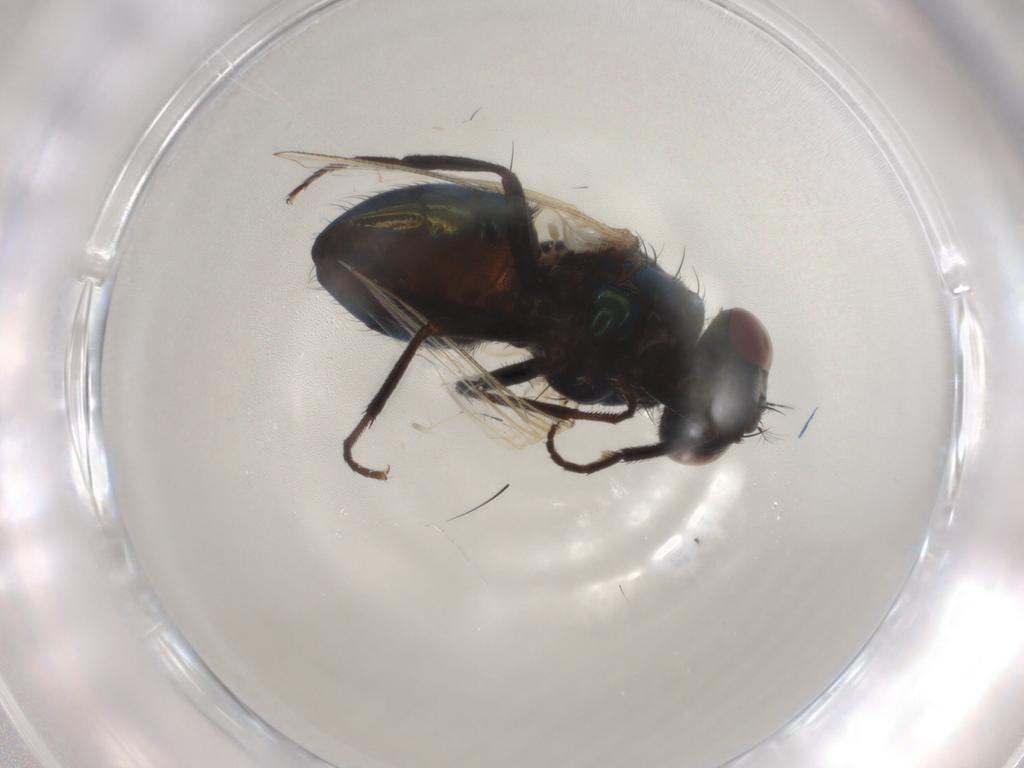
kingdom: Animalia
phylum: Arthropoda
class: Insecta
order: Diptera
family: Muscidae
